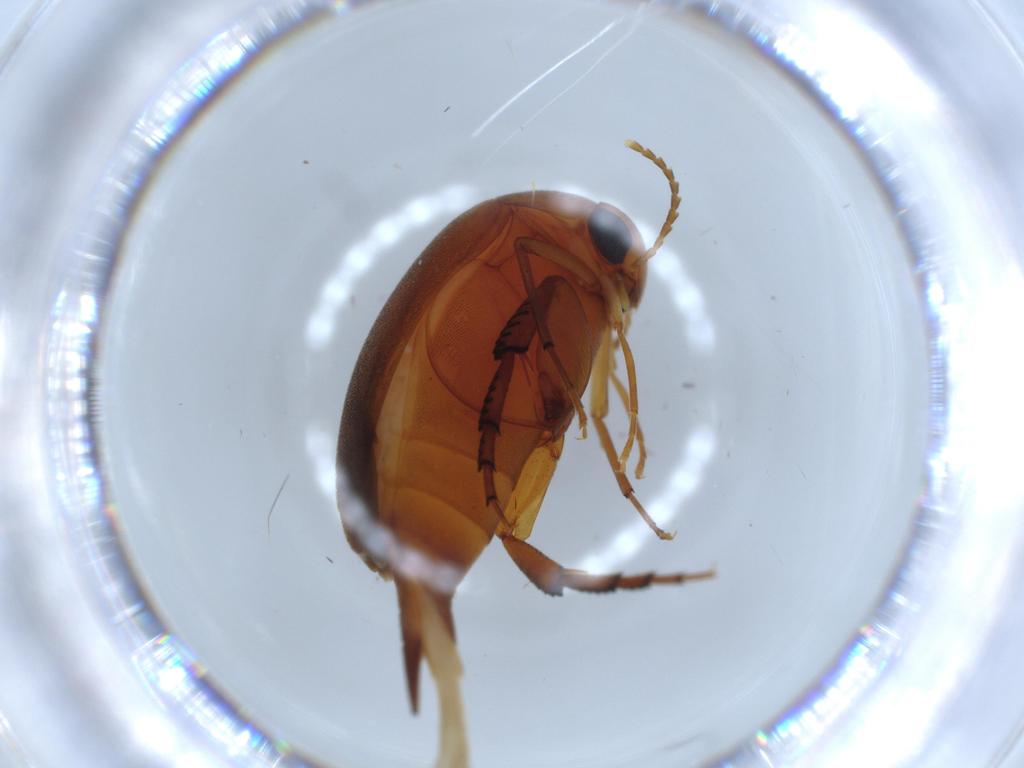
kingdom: Animalia
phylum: Arthropoda
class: Insecta
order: Coleoptera
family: Mordellidae
